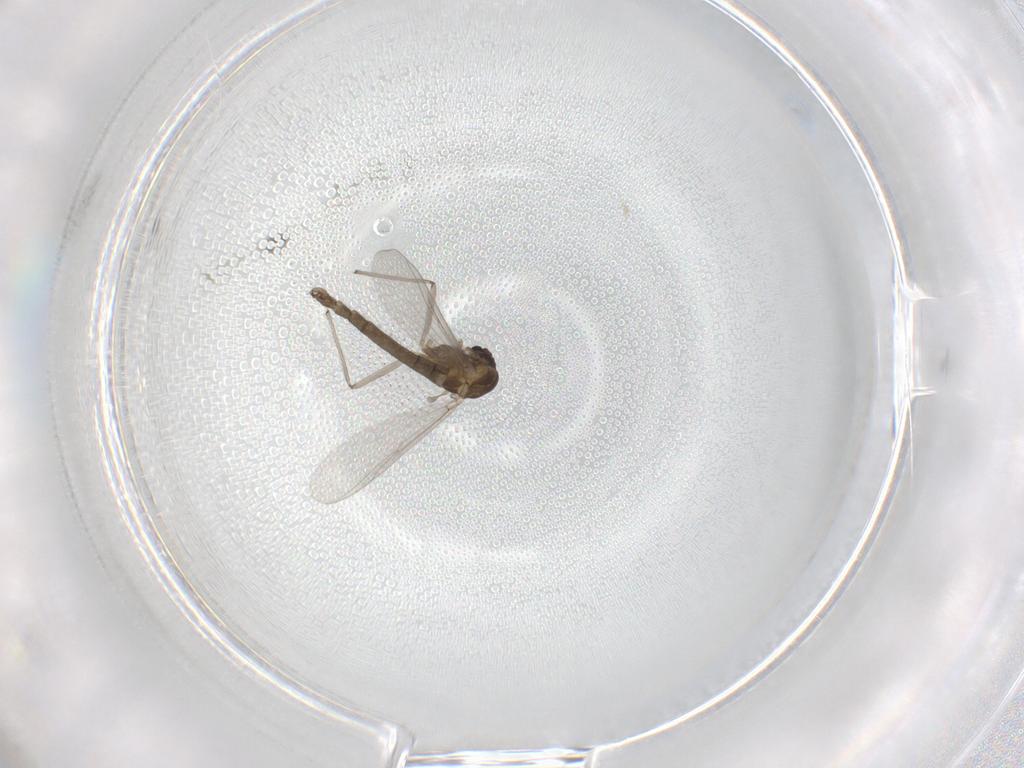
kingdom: Animalia
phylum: Arthropoda
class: Insecta
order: Diptera
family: Chironomidae
